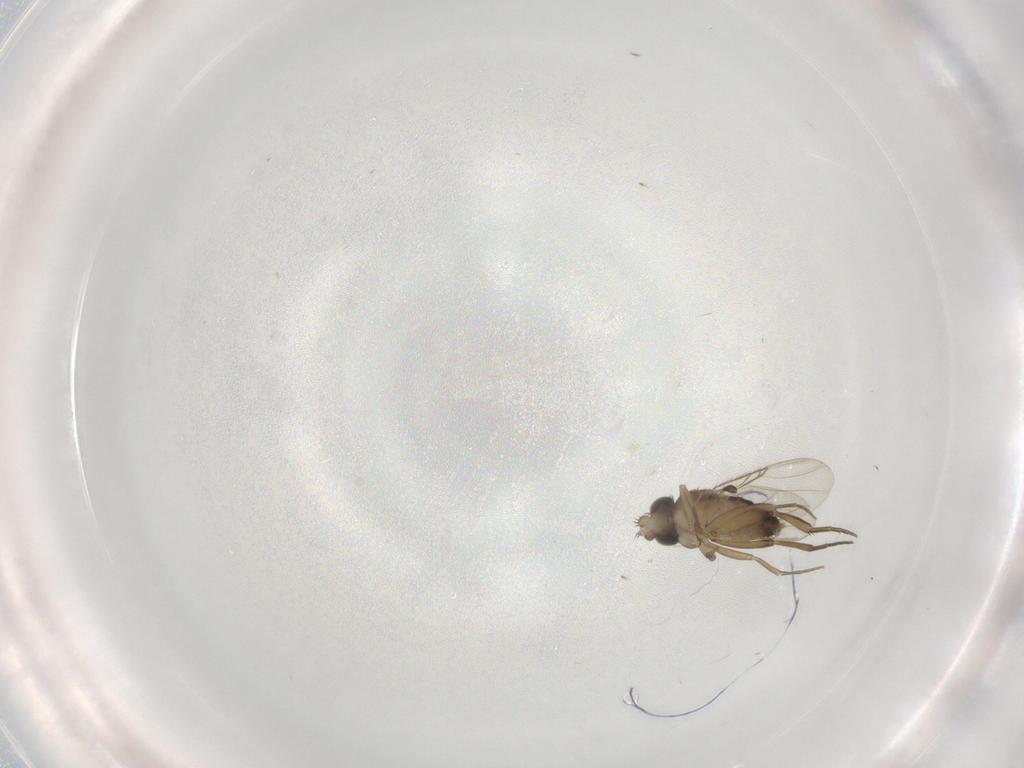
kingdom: Animalia
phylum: Arthropoda
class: Insecta
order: Diptera
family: Phoridae
